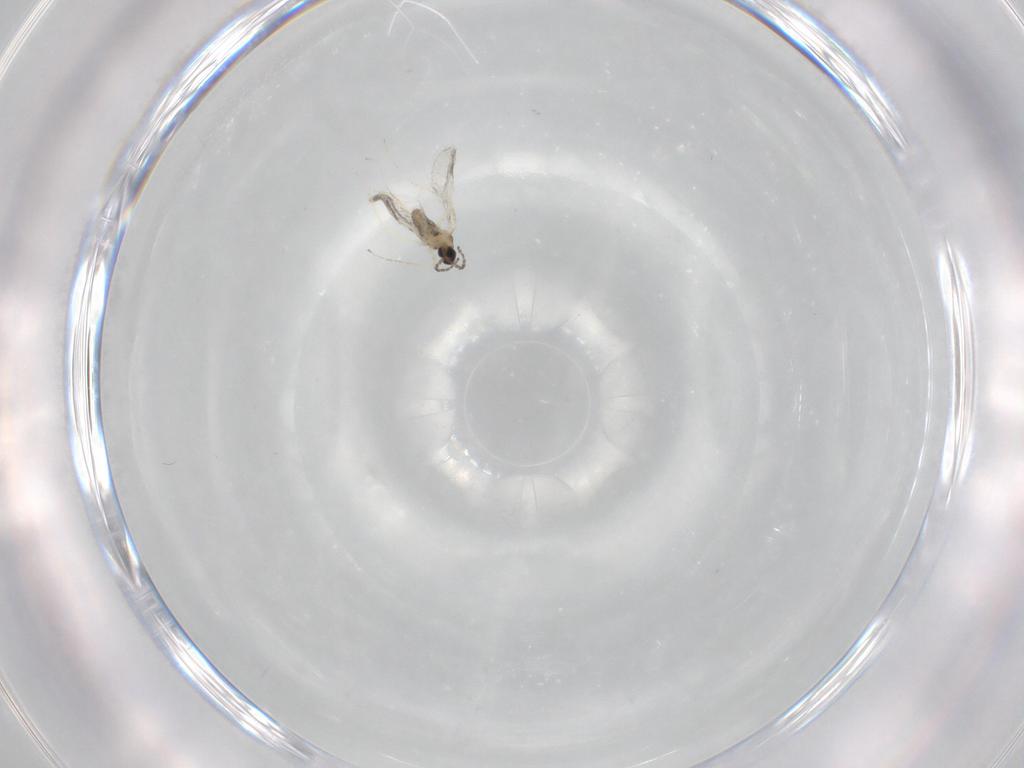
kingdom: Animalia
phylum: Arthropoda
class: Insecta
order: Diptera
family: Cecidomyiidae
